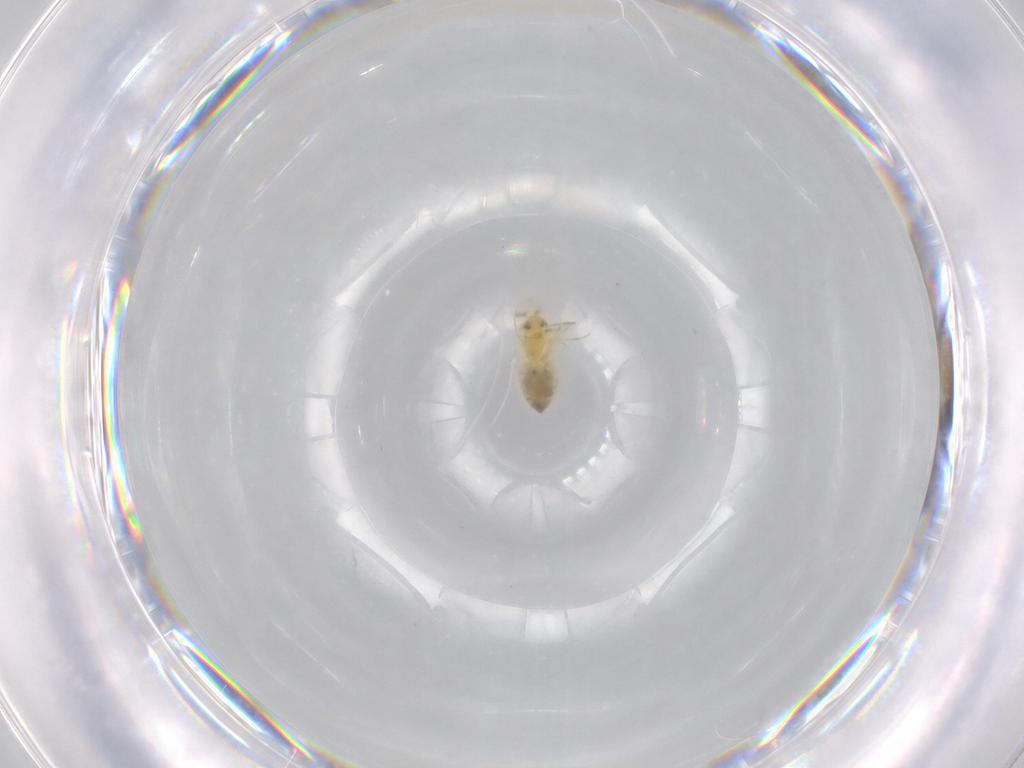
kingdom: Animalia
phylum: Arthropoda
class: Insecta
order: Hemiptera
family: Aleyrodidae
